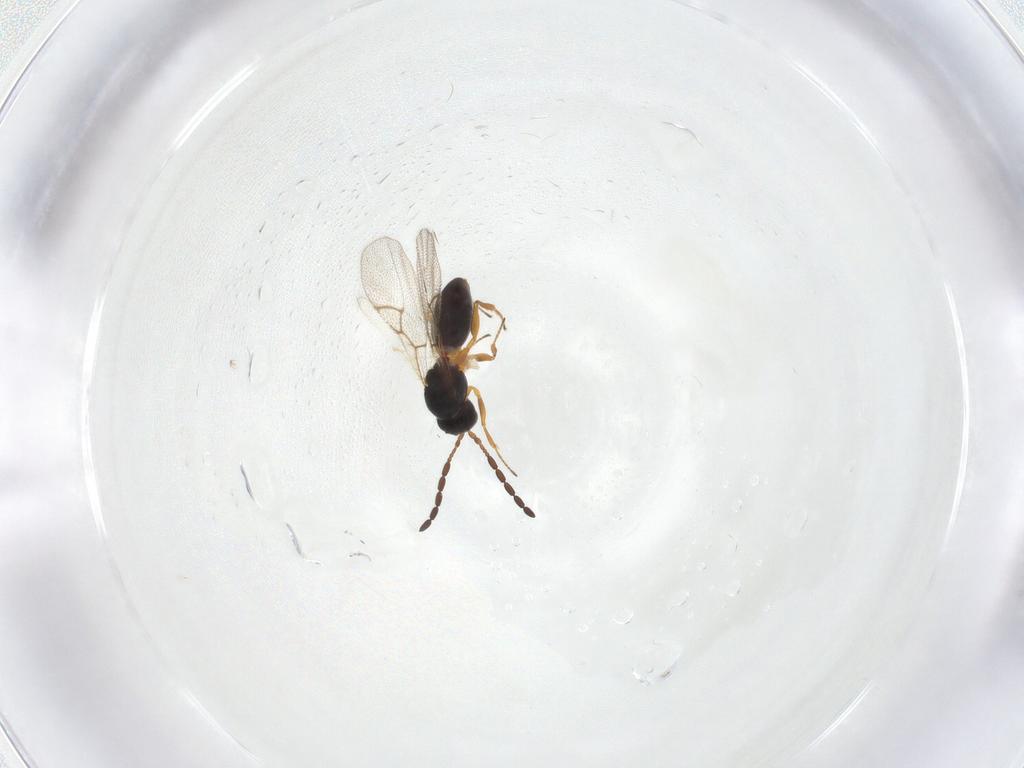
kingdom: Animalia
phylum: Arthropoda
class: Insecta
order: Hymenoptera
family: Figitidae
